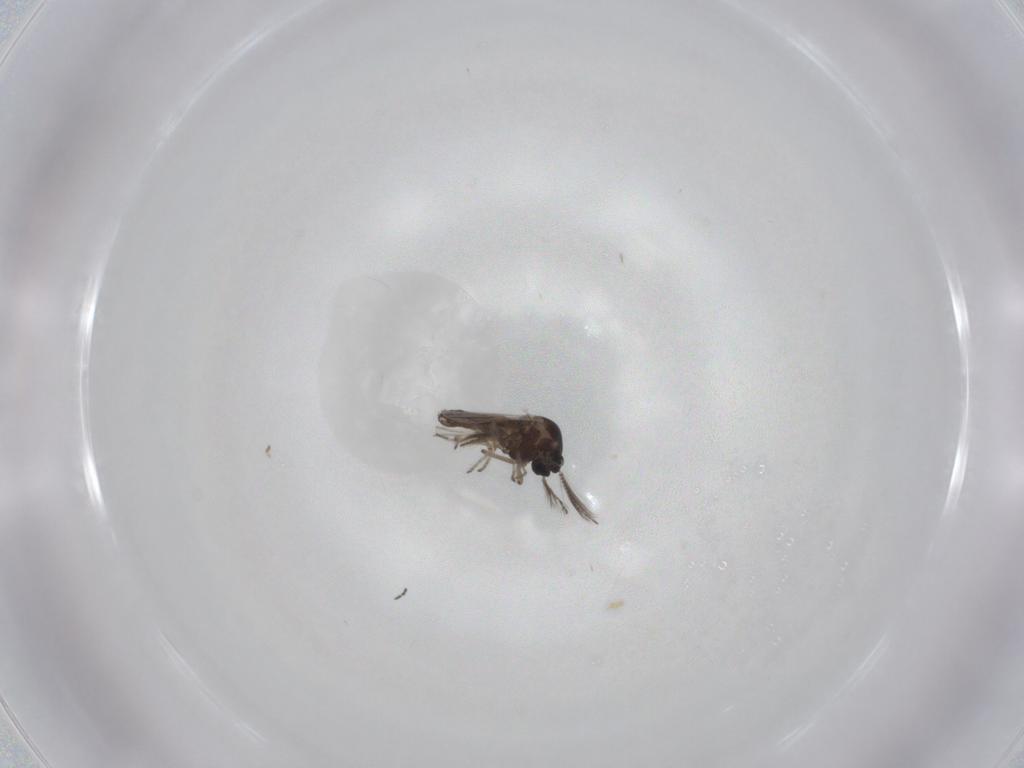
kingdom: Animalia
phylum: Arthropoda
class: Insecta
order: Diptera
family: Ceratopogonidae
